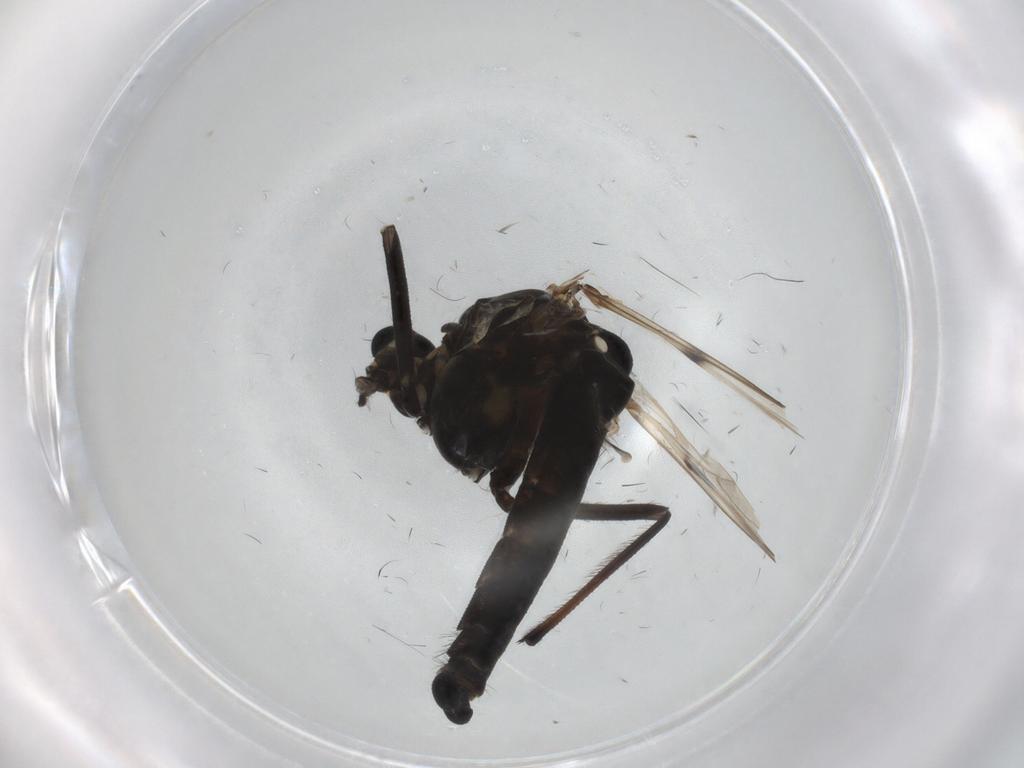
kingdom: Animalia
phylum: Arthropoda
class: Insecta
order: Diptera
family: Chironomidae
